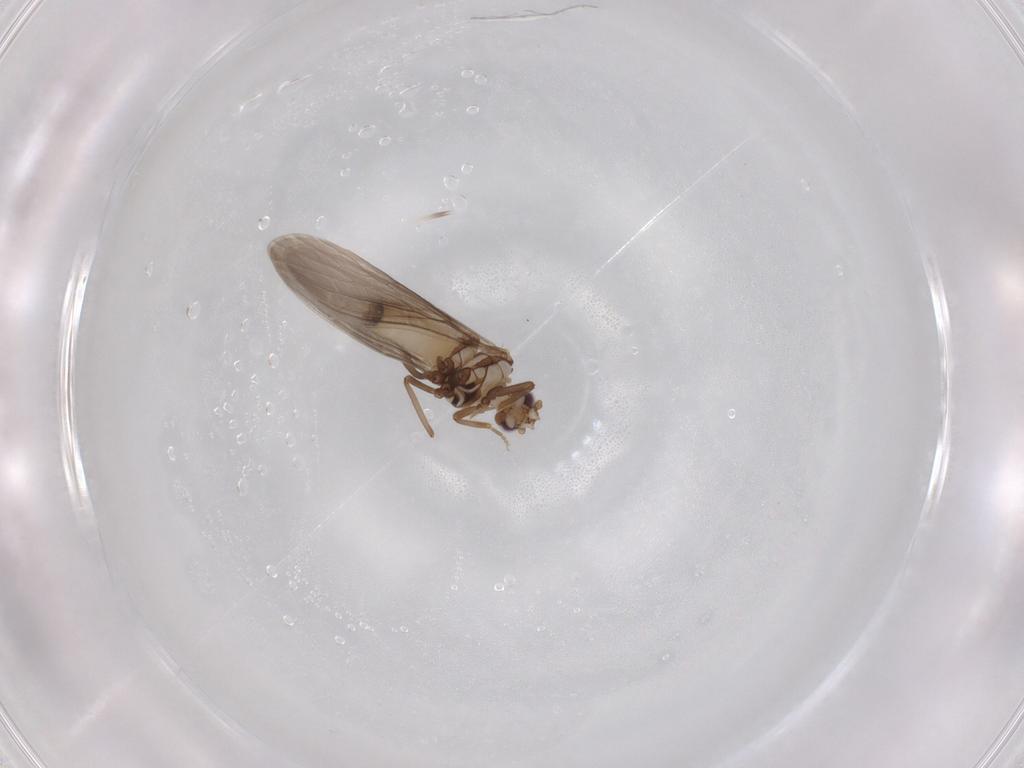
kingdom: Animalia
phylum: Arthropoda
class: Insecta
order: Neuroptera
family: Coniopterygidae
